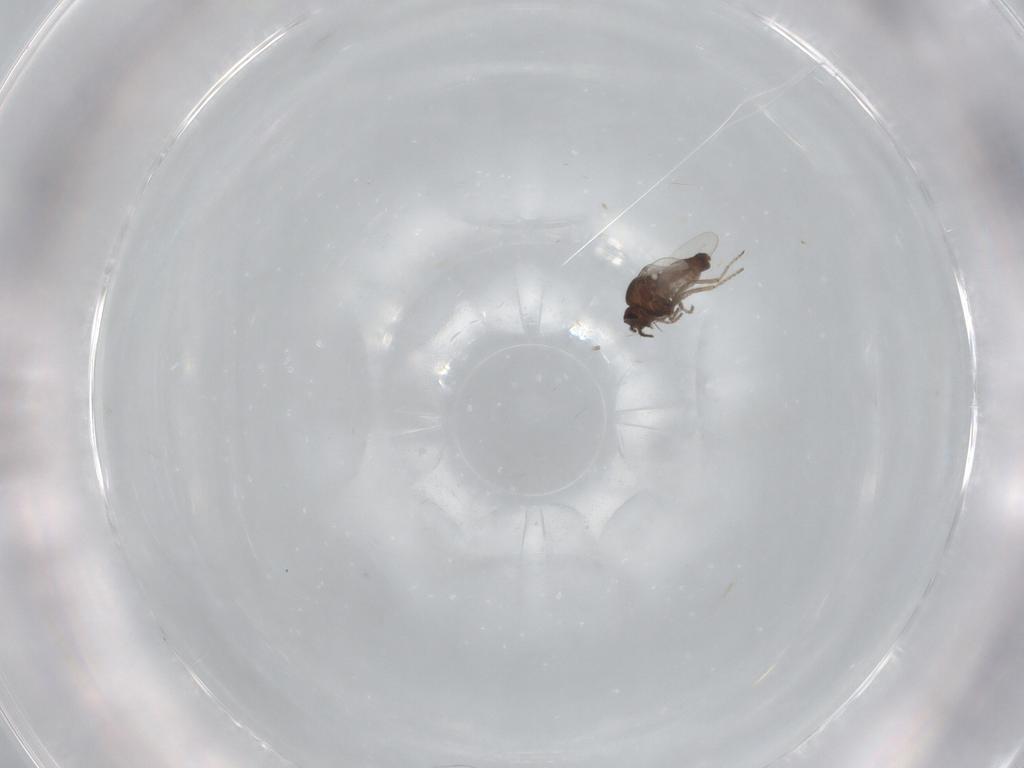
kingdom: Animalia
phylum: Arthropoda
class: Insecta
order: Diptera
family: Ceratopogonidae
